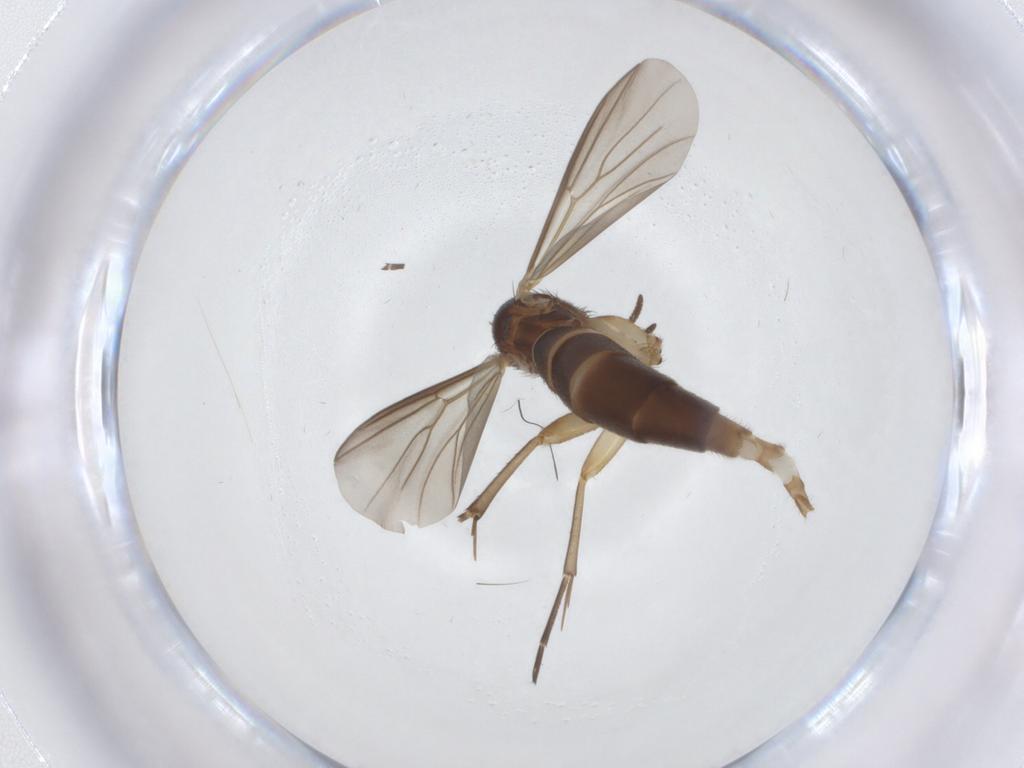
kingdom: Animalia
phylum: Arthropoda
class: Insecta
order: Diptera
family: Mycetophilidae
